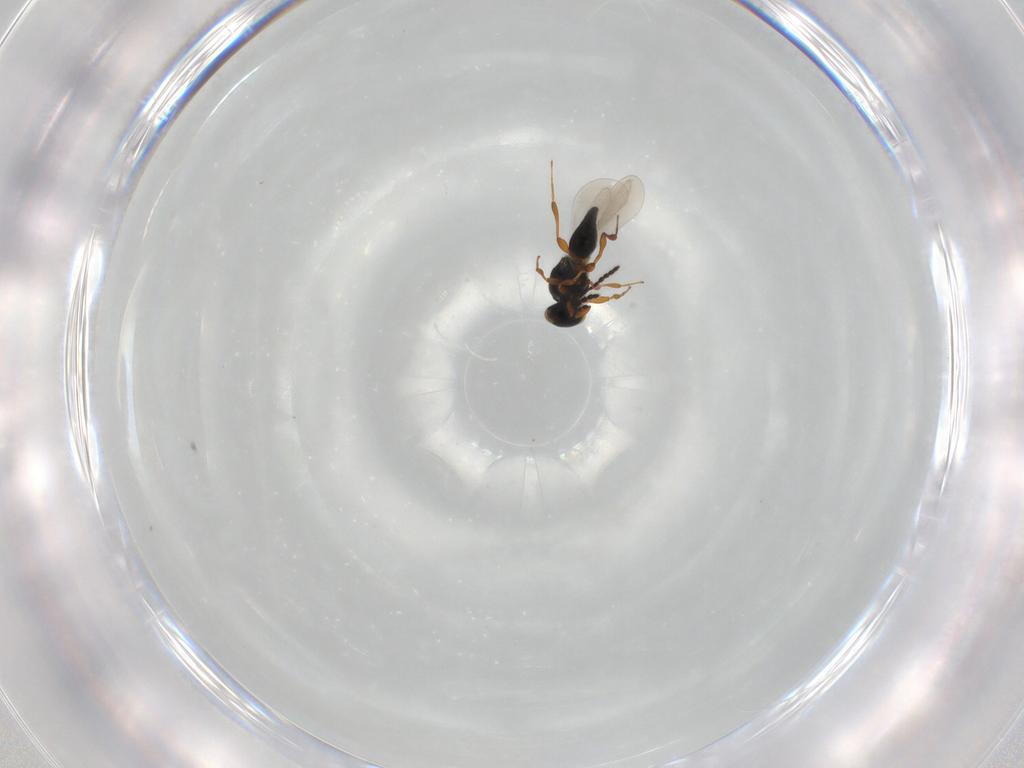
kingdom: Animalia
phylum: Arthropoda
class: Insecta
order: Hymenoptera
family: Platygastridae
